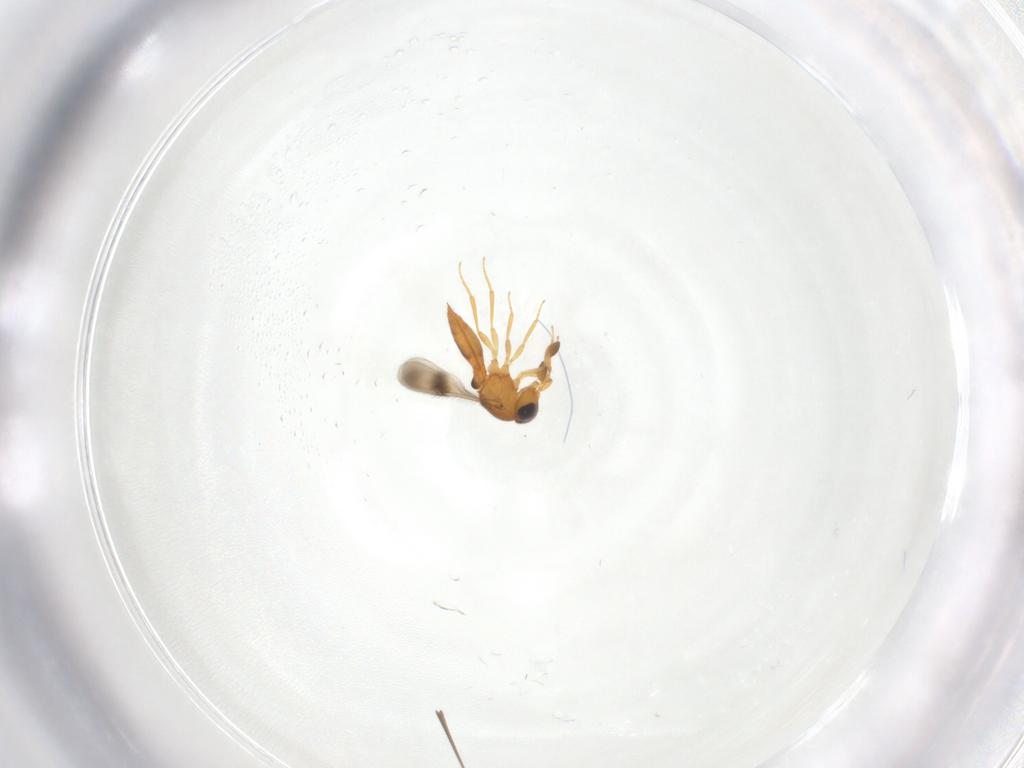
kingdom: Animalia
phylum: Arthropoda
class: Insecta
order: Hymenoptera
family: Scelionidae
